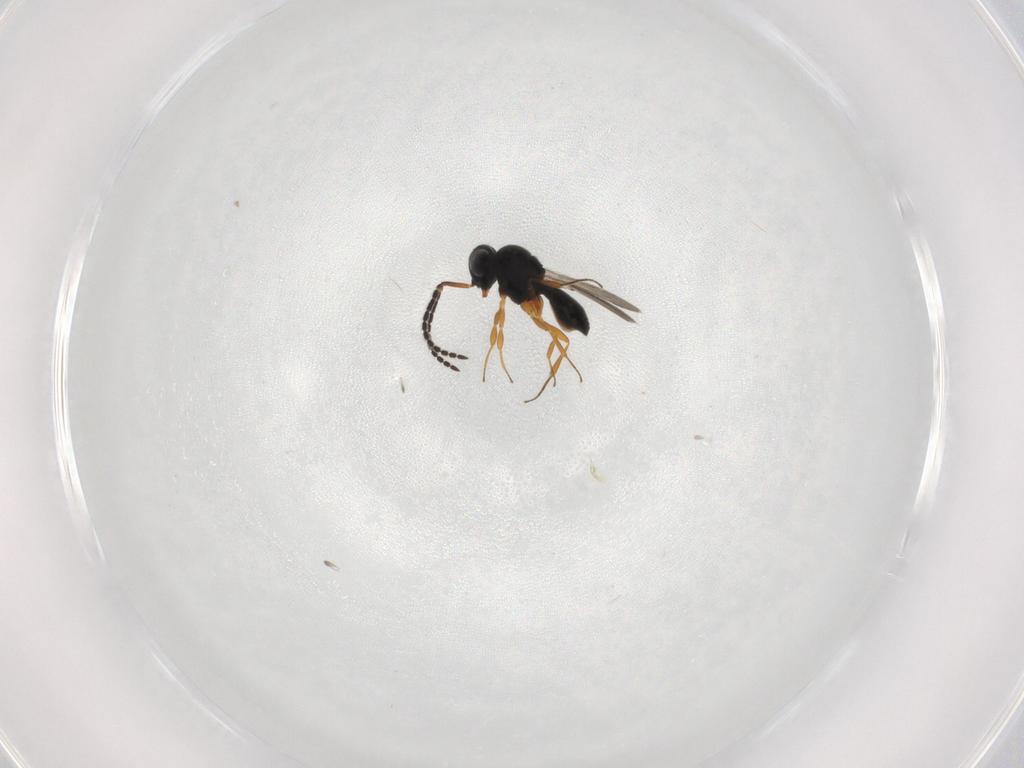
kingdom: Animalia
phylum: Arthropoda
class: Insecta
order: Hymenoptera
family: Scelionidae
